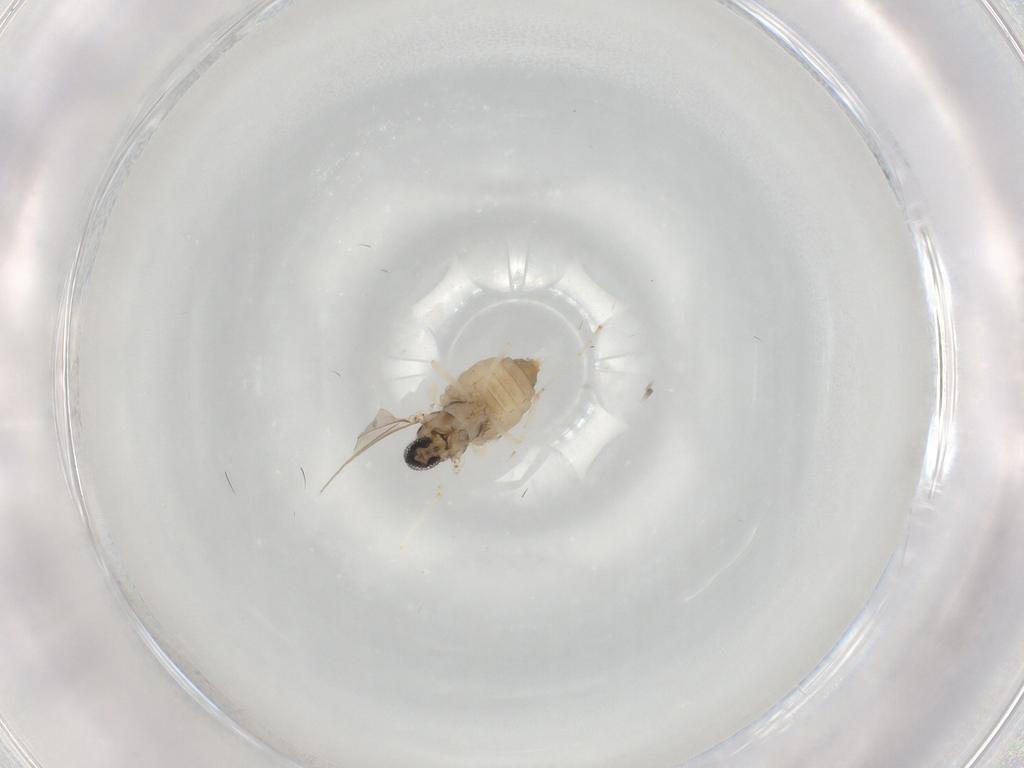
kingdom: Animalia
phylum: Arthropoda
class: Insecta
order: Diptera
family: Cecidomyiidae
